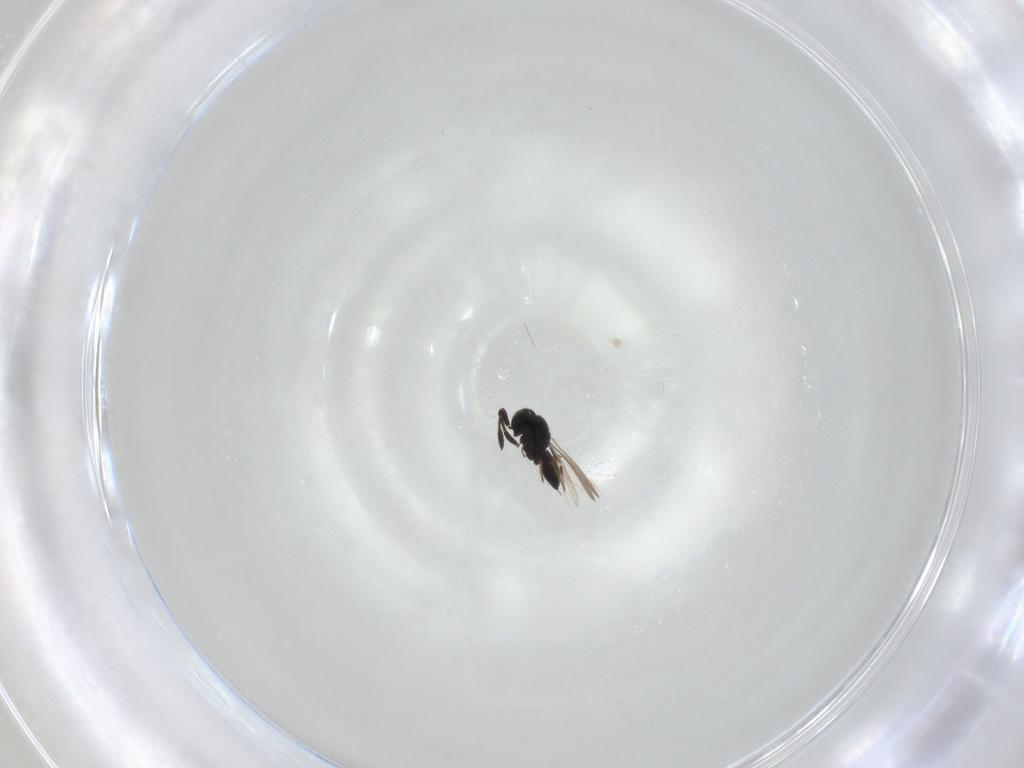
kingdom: Animalia
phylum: Arthropoda
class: Insecta
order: Hymenoptera
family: Scelionidae
